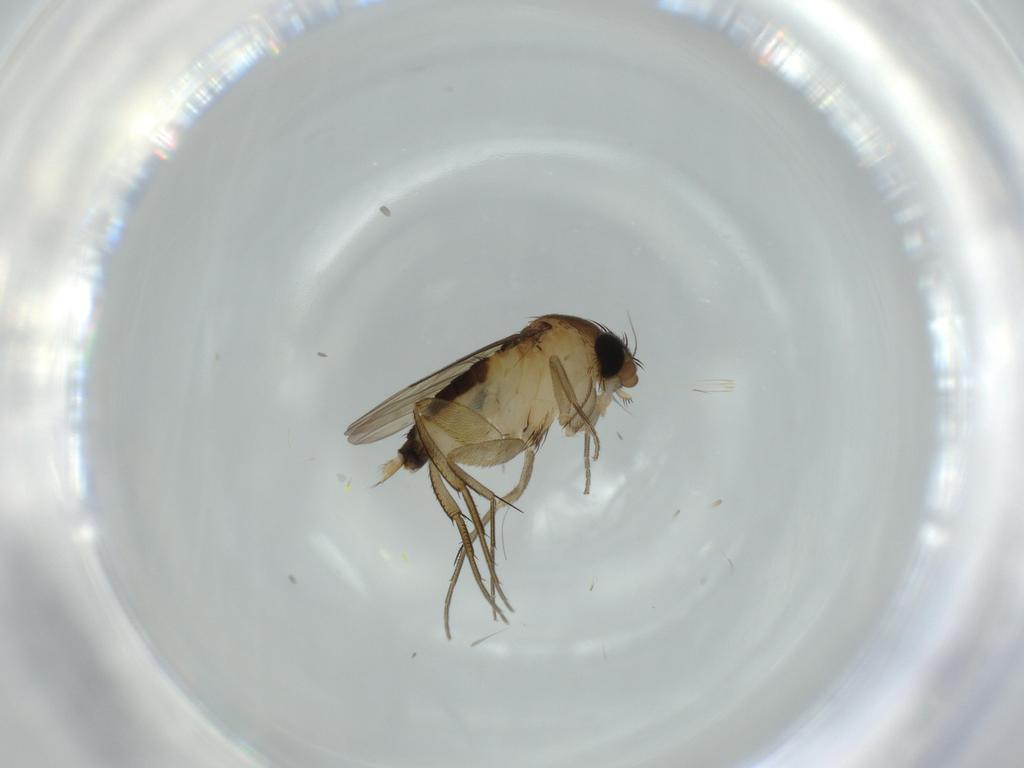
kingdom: Animalia
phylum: Arthropoda
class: Insecta
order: Diptera
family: Phoridae
